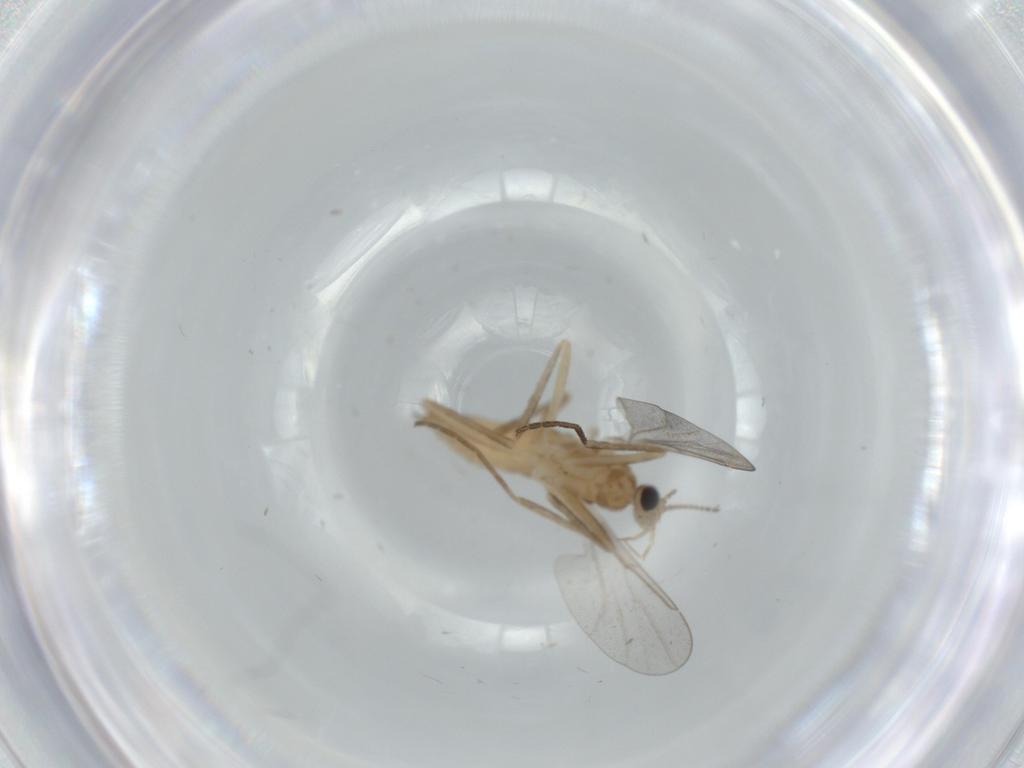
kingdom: Animalia
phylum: Arthropoda
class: Insecta
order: Diptera
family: Cecidomyiidae
